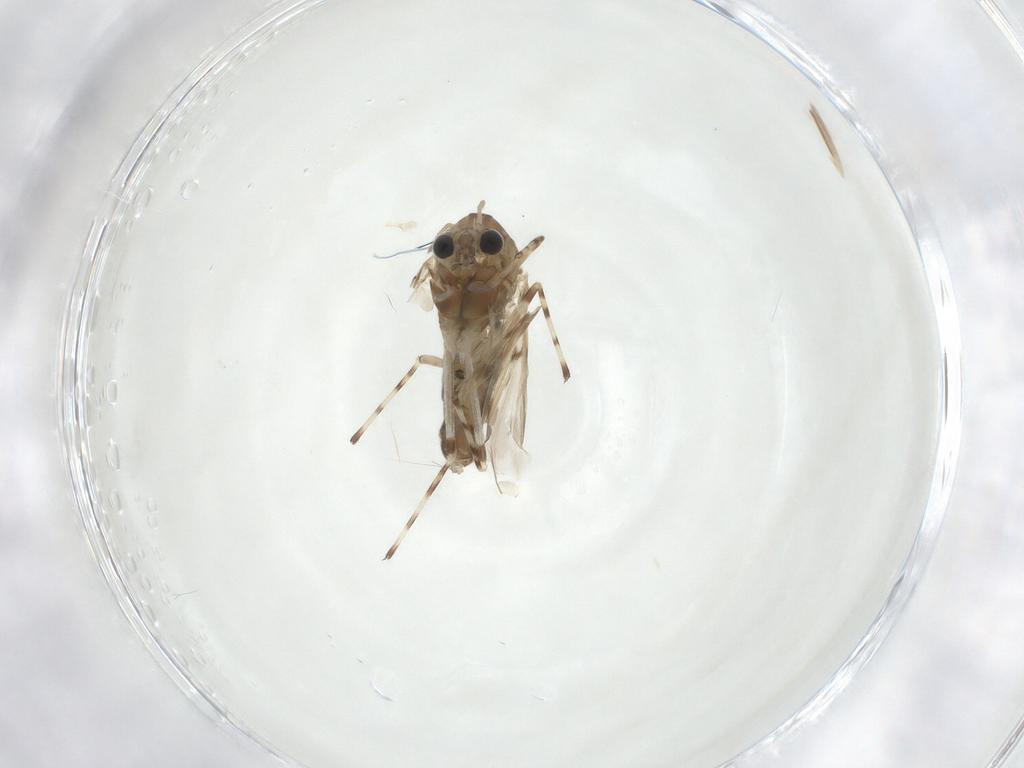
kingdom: Animalia
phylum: Arthropoda
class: Insecta
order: Diptera
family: Chironomidae
